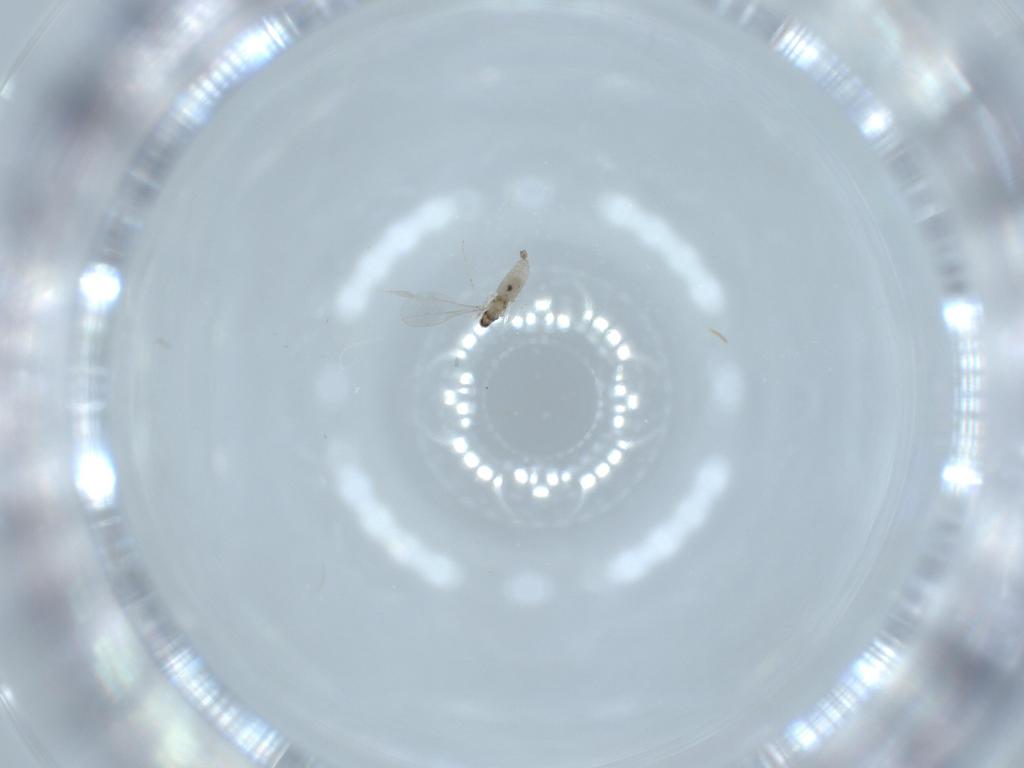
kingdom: Animalia
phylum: Arthropoda
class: Insecta
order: Diptera
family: Cecidomyiidae
